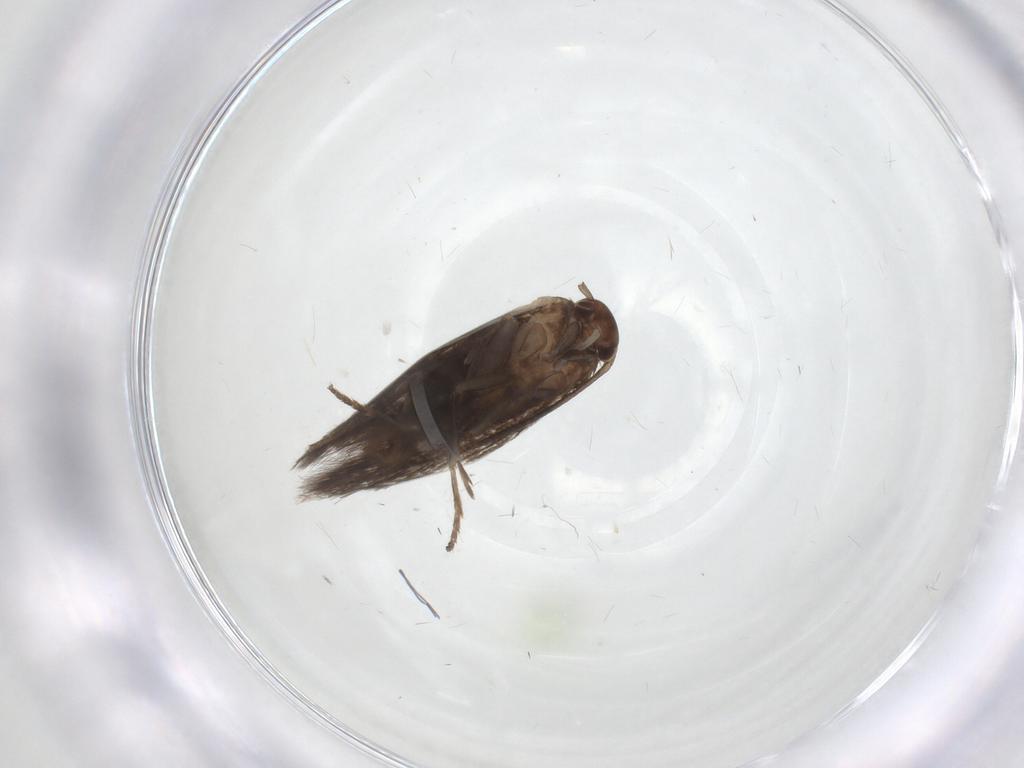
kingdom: Animalia
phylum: Arthropoda
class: Insecta
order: Lepidoptera
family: Elachistidae
